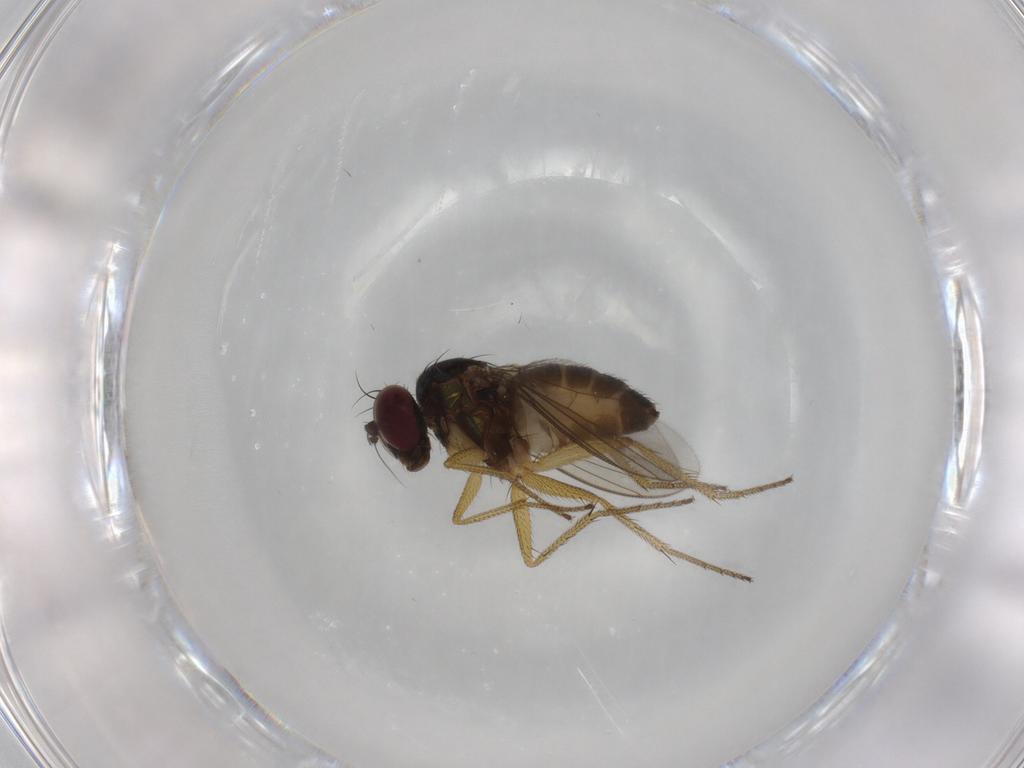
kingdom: Animalia
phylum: Arthropoda
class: Insecta
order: Diptera
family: Dolichopodidae
